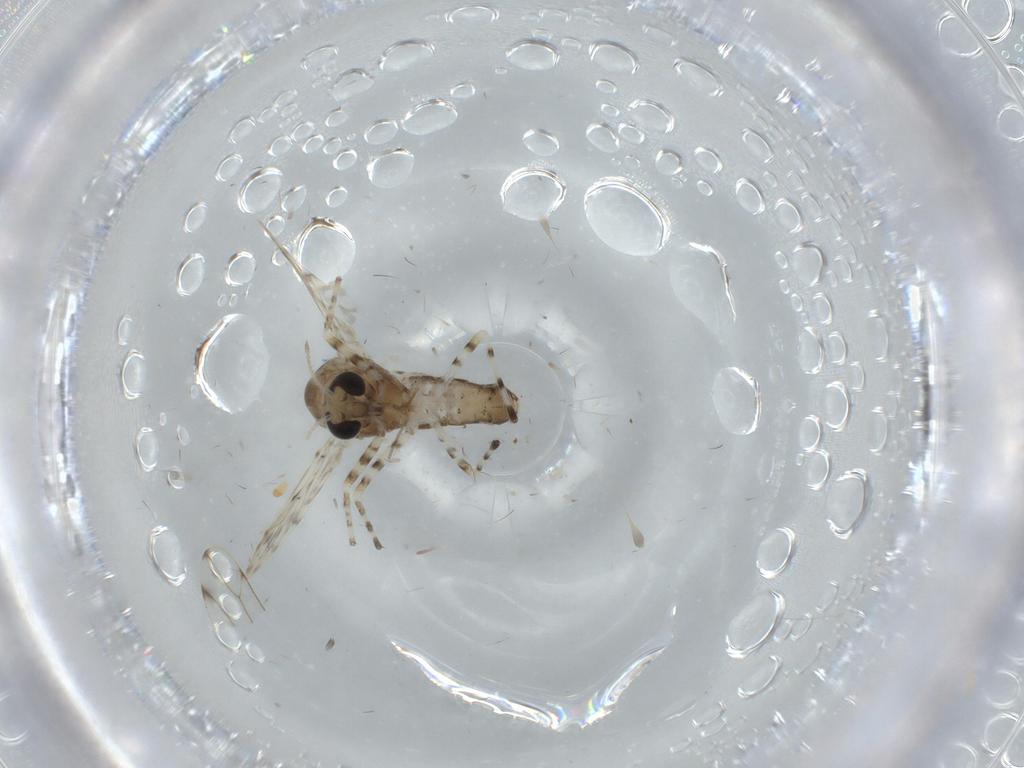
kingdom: Animalia
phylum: Arthropoda
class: Insecta
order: Diptera
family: Chironomidae
